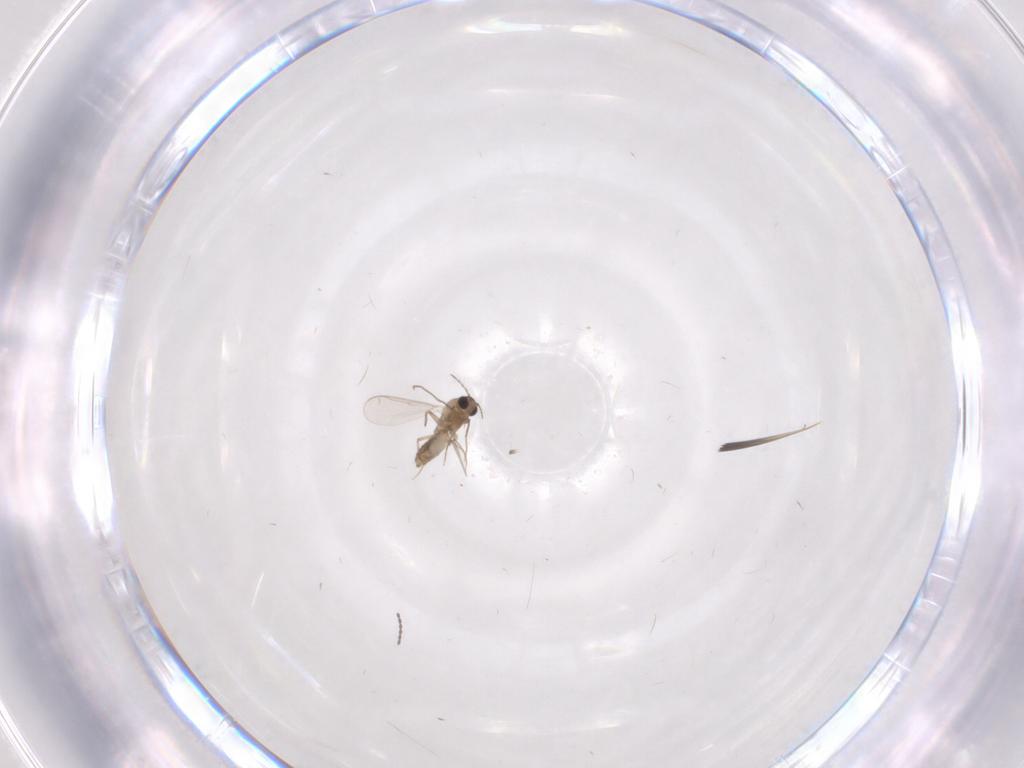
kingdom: Animalia
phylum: Arthropoda
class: Insecta
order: Diptera
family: Chironomidae
